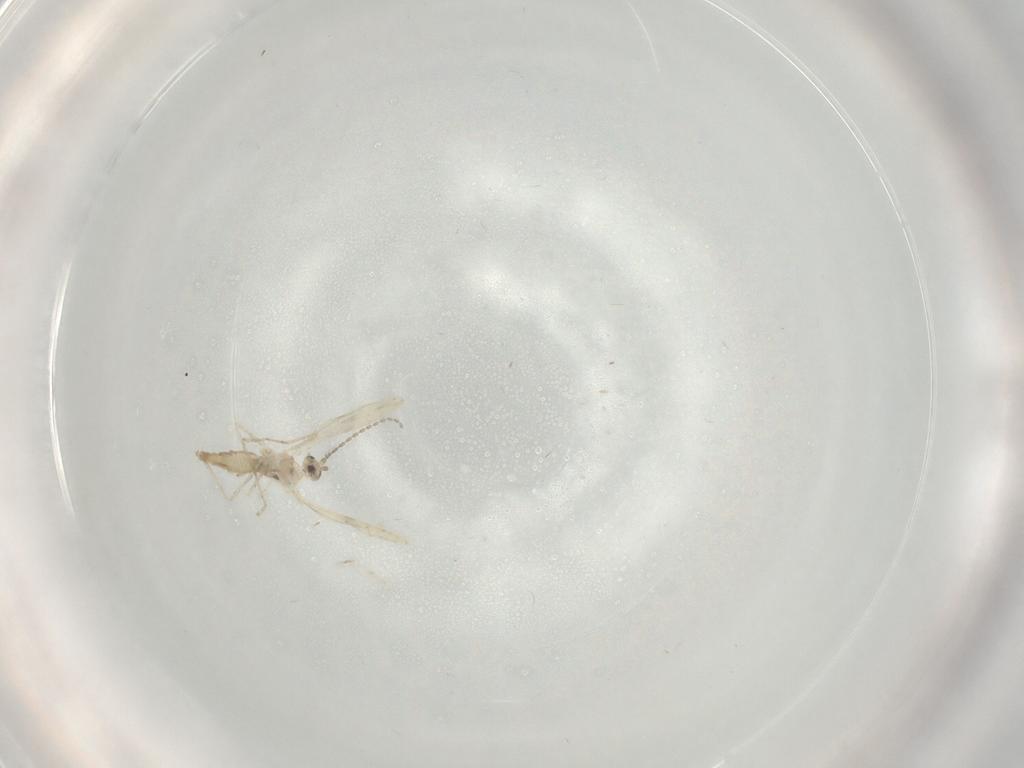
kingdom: Animalia
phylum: Arthropoda
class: Insecta
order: Diptera
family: Cecidomyiidae
